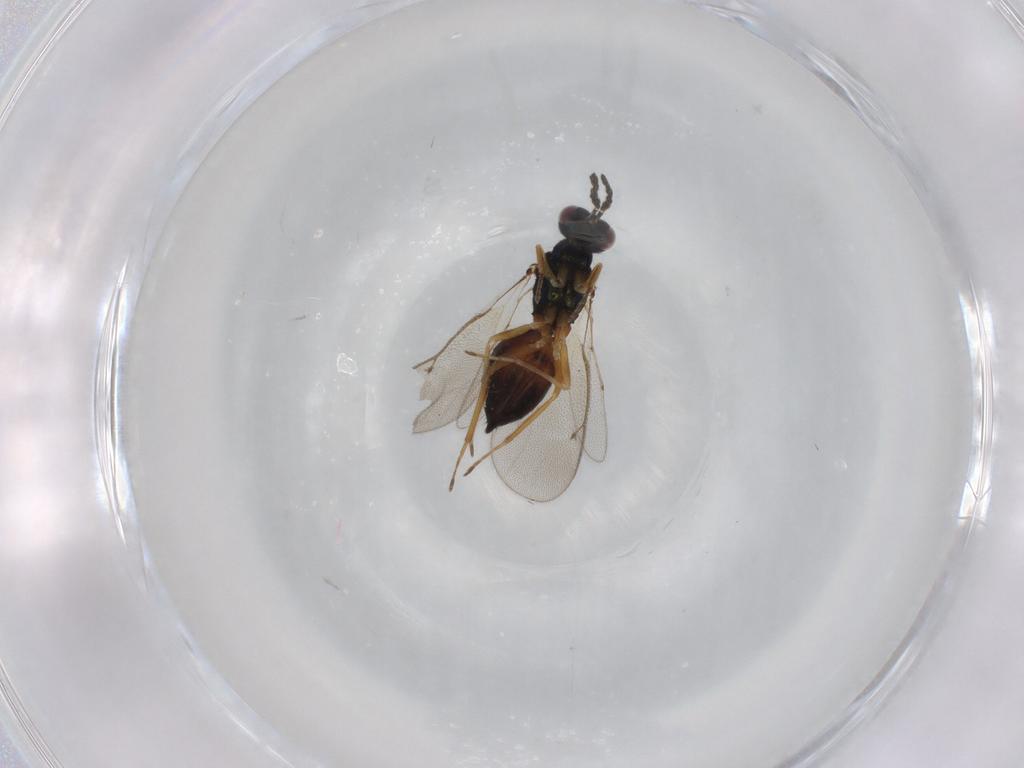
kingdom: Animalia
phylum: Arthropoda
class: Insecta
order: Hymenoptera
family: Eulophidae
